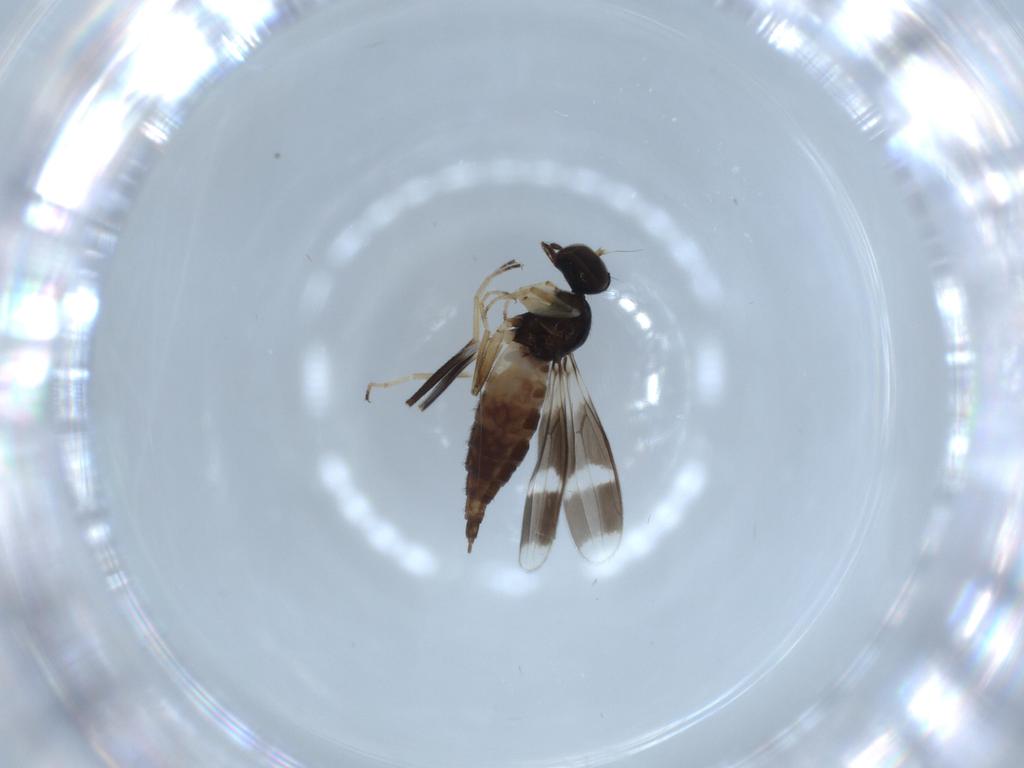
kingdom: Animalia
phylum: Arthropoda
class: Insecta
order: Diptera
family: Hybotidae
